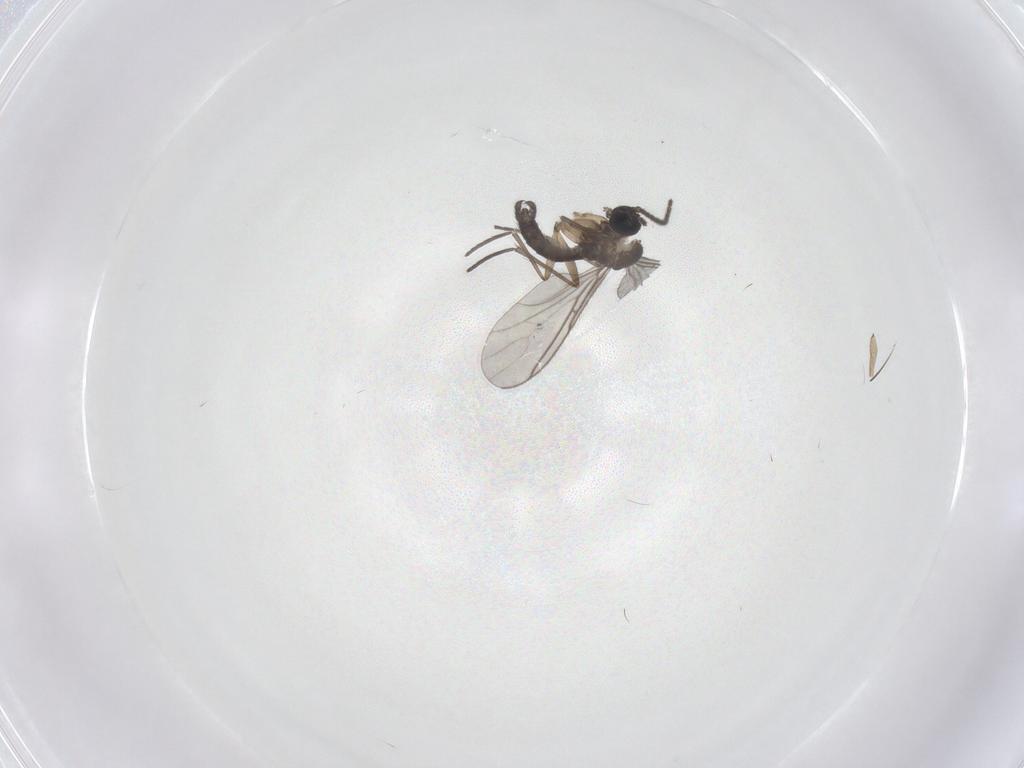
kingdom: Animalia
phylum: Arthropoda
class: Insecta
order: Diptera
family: Sciaridae
